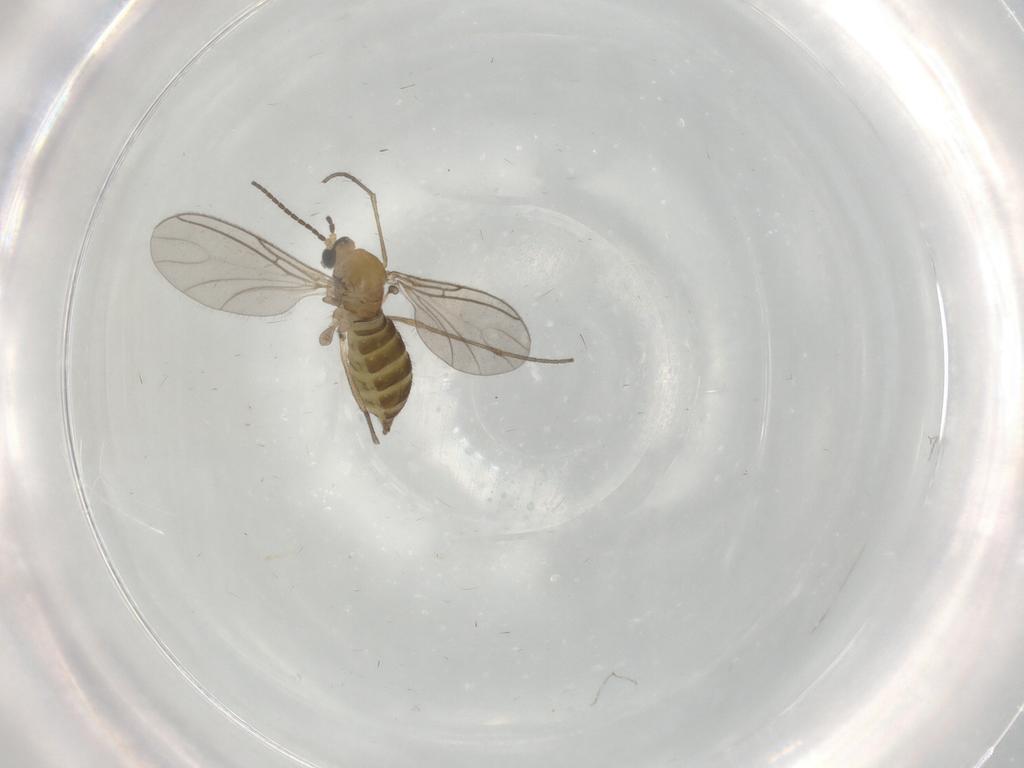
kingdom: Animalia
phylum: Arthropoda
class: Insecta
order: Diptera
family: Sciaridae
